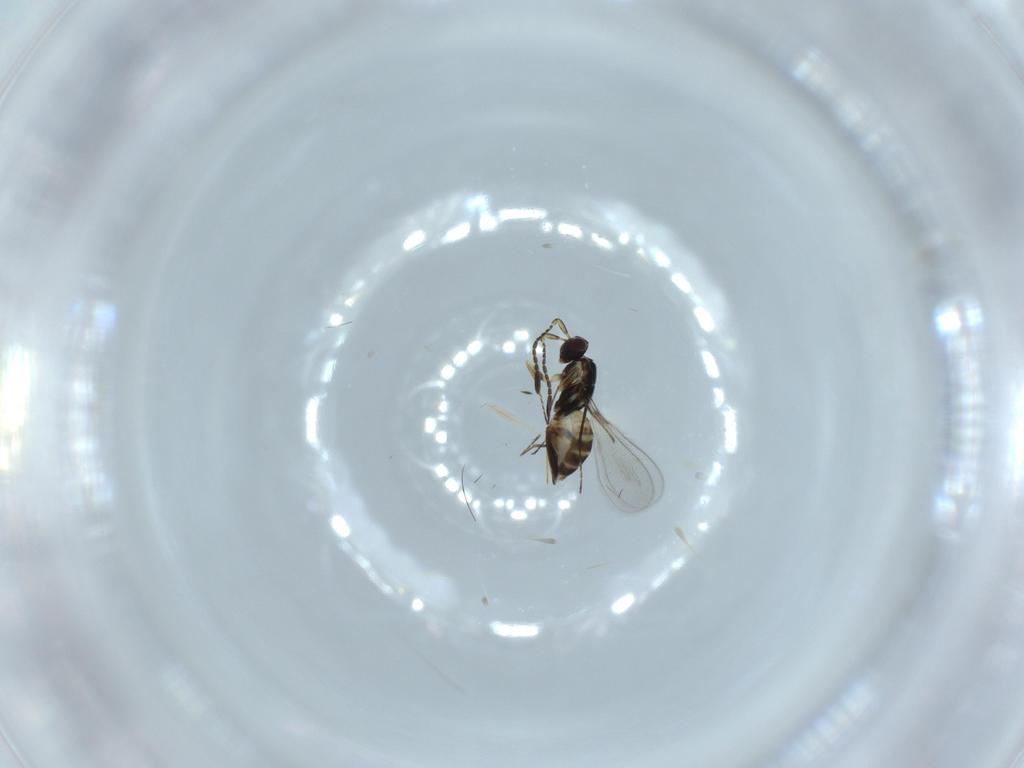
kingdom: Animalia
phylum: Arthropoda
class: Insecta
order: Hymenoptera
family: Mymaridae
